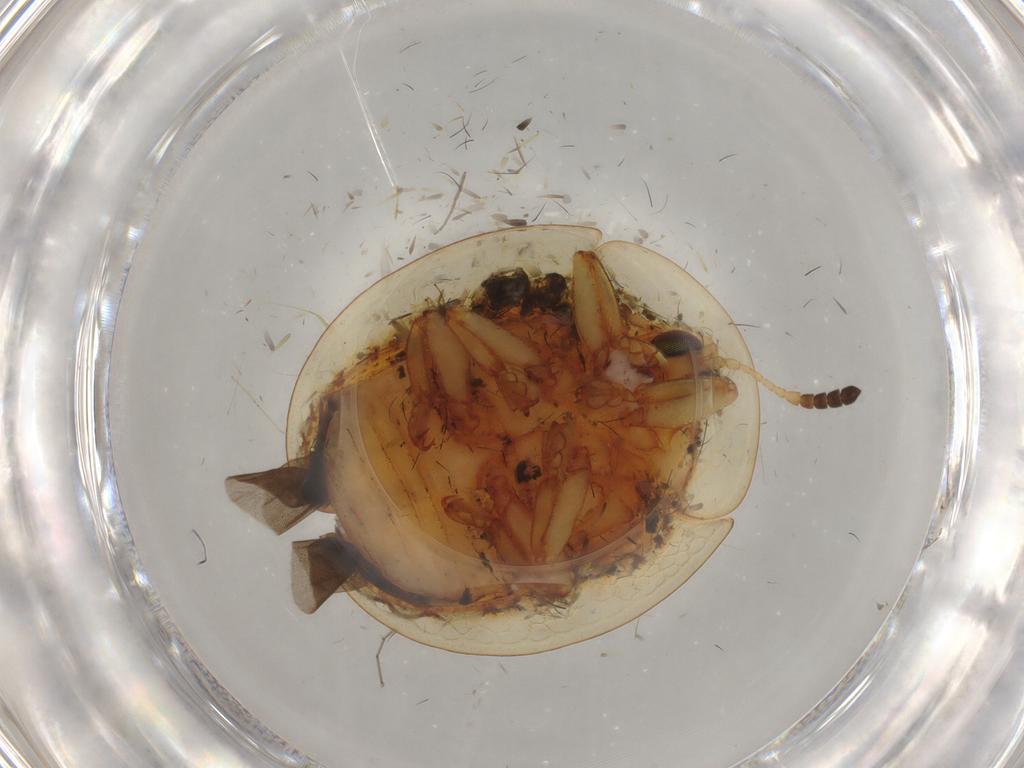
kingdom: Animalia
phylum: Arthropoda
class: Insecta
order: Coleoptera
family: Chrysomelidae
